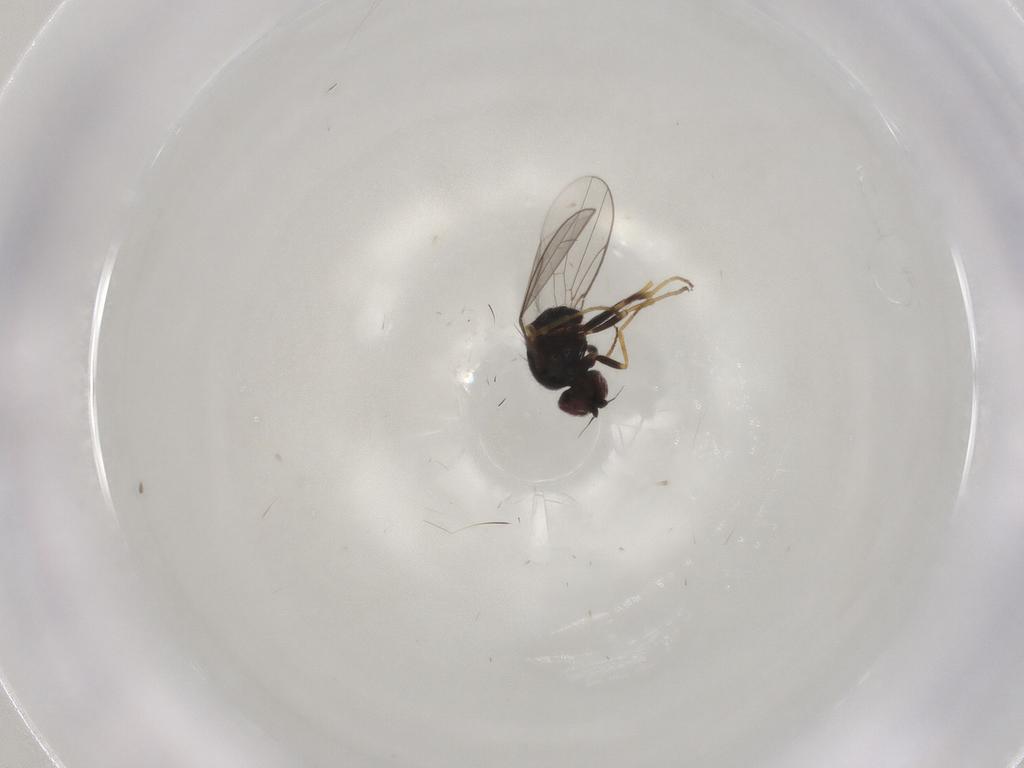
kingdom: Animalia
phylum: Arthropoda
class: Insecta
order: Diptera
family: Chloropidae
